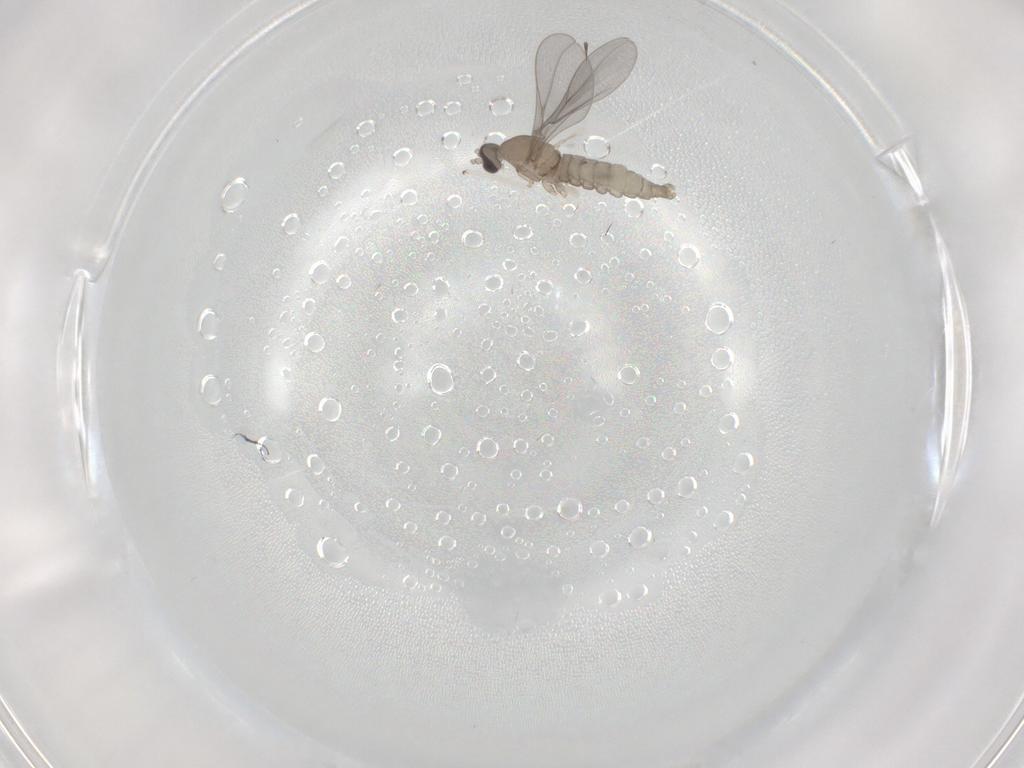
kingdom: Animalia
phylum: Arthropoda
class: Insecta
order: Diptera
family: Cecidomyiidae
